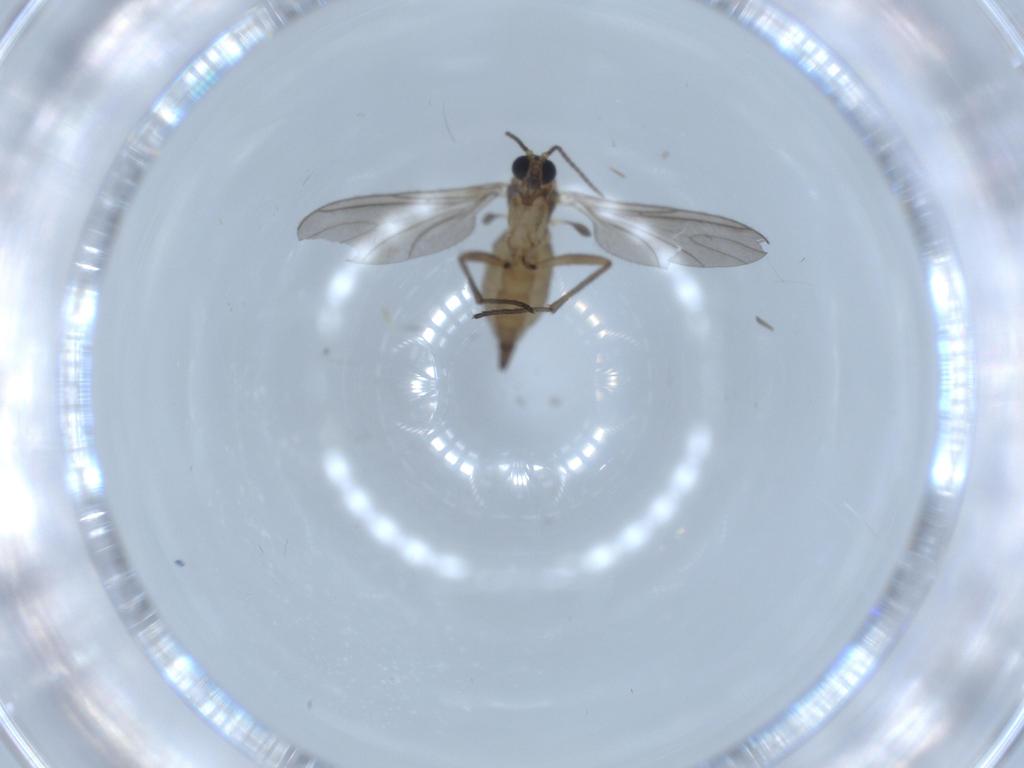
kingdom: Animalia
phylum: Arthropoda
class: Insecta
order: Diptera
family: Sciaridae
